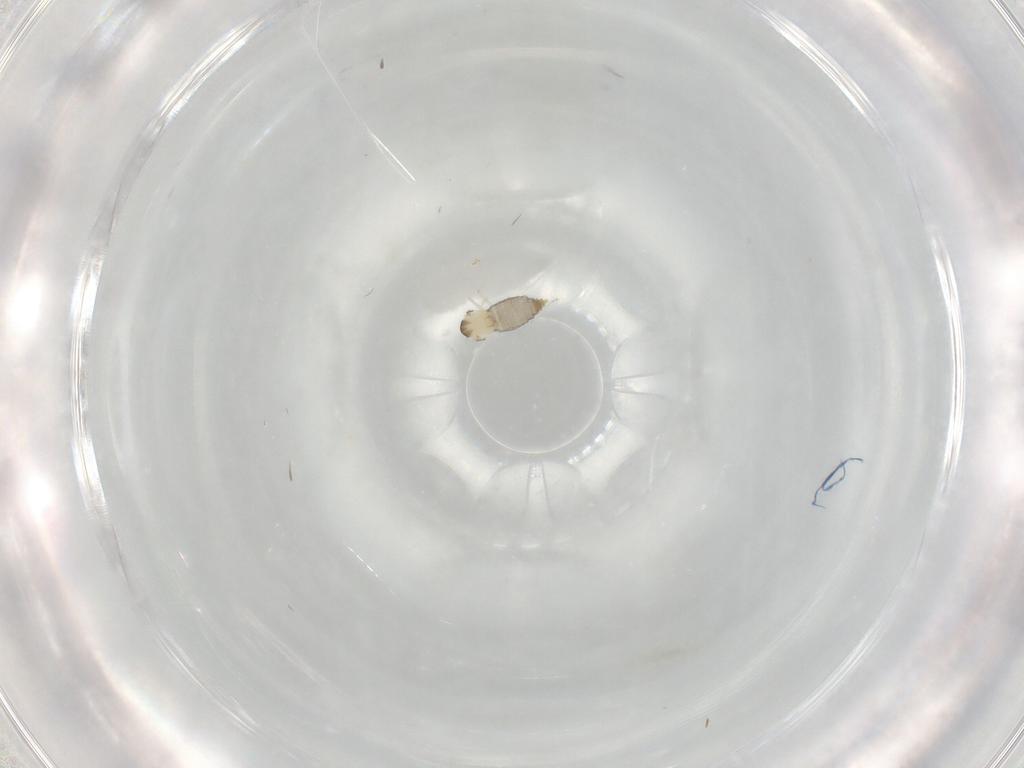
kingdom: Animalia
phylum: Arthropoda
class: Insecta
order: Diptera
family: Cecidomyiidae
